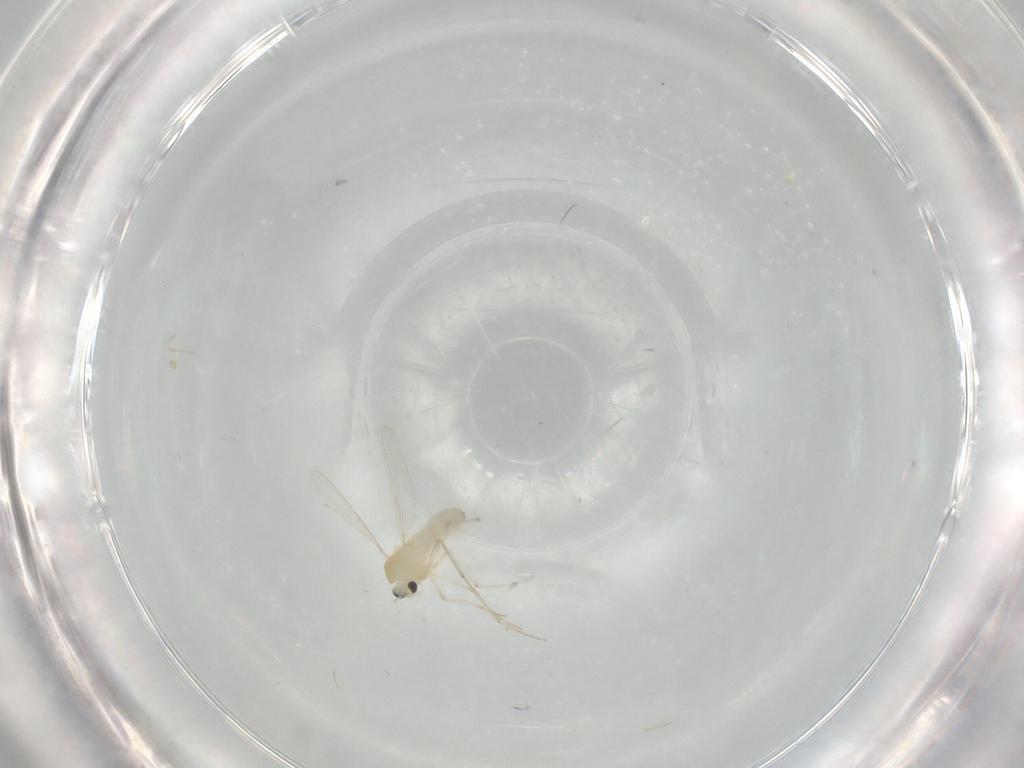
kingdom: Animalia
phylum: Arthropoda
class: Insecta
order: Diptera
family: Chironomidae
